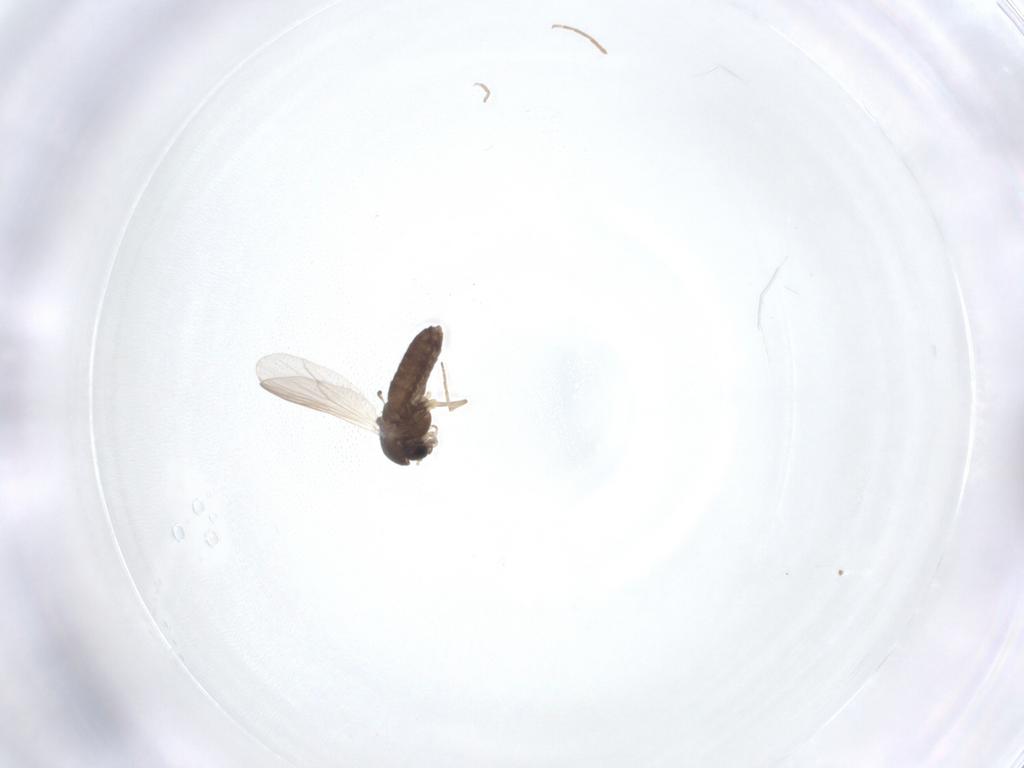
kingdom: Animalia
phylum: Arthropoda
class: Insecta
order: Diptera
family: Chironomidae
